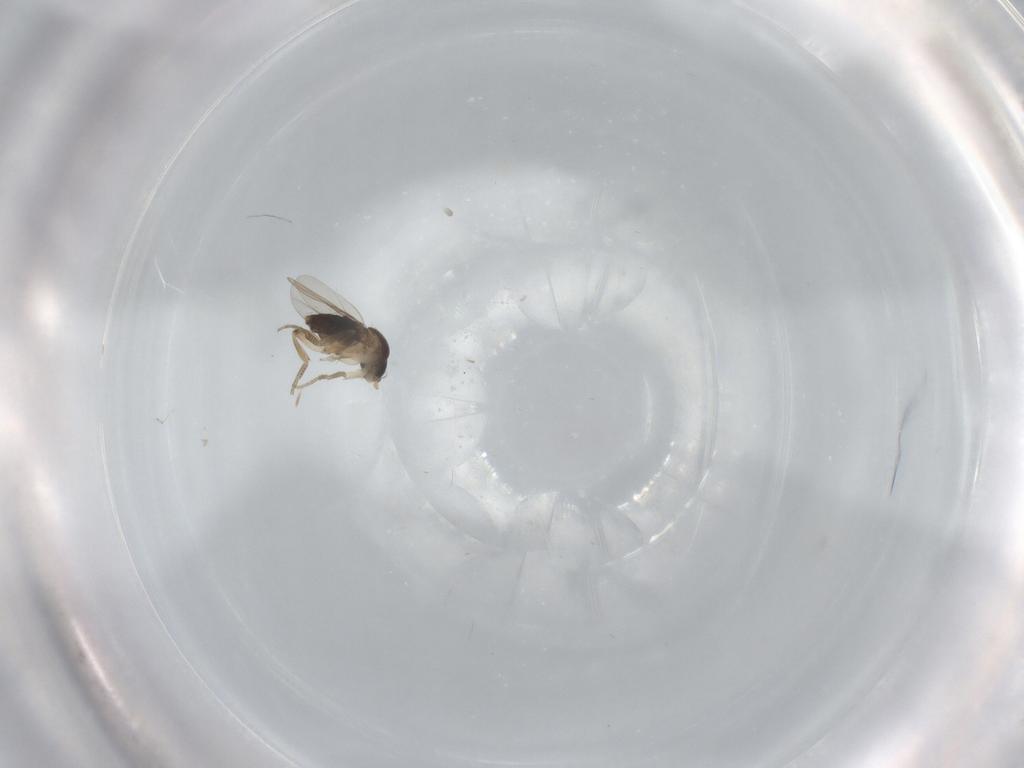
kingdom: Animalia
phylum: Arthropoda
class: Insecta
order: Diptera
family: Phoridae
